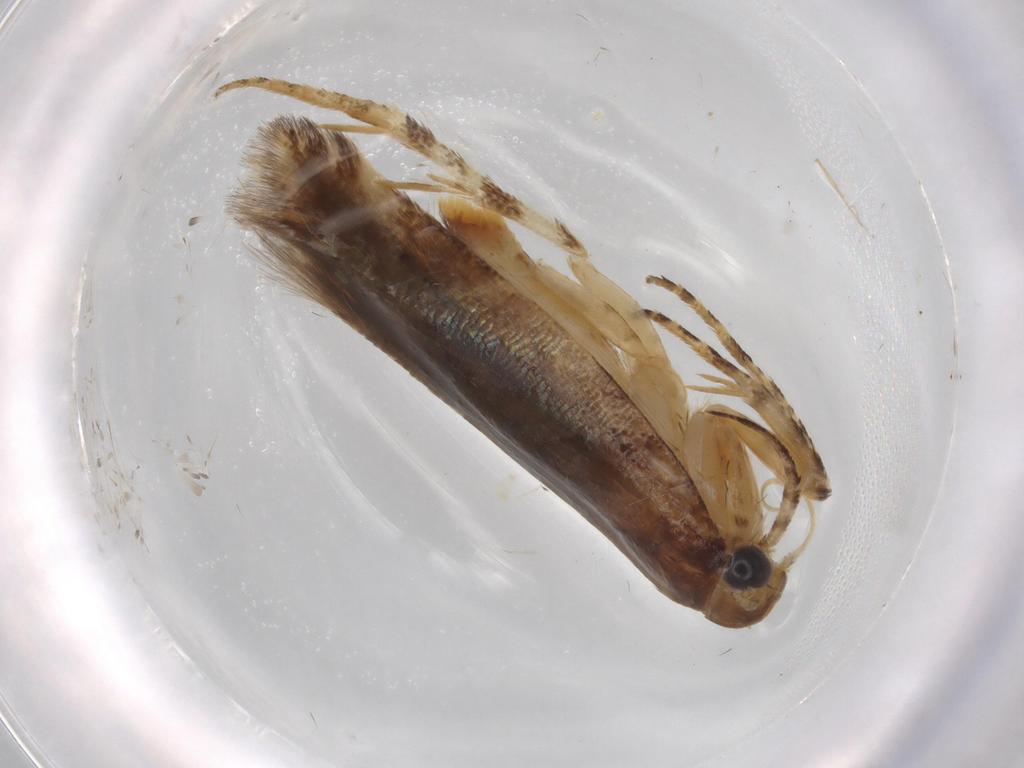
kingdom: Animalia
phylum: Arthropoda
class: Insecta
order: Lepidoptera
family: Gelechiidae
